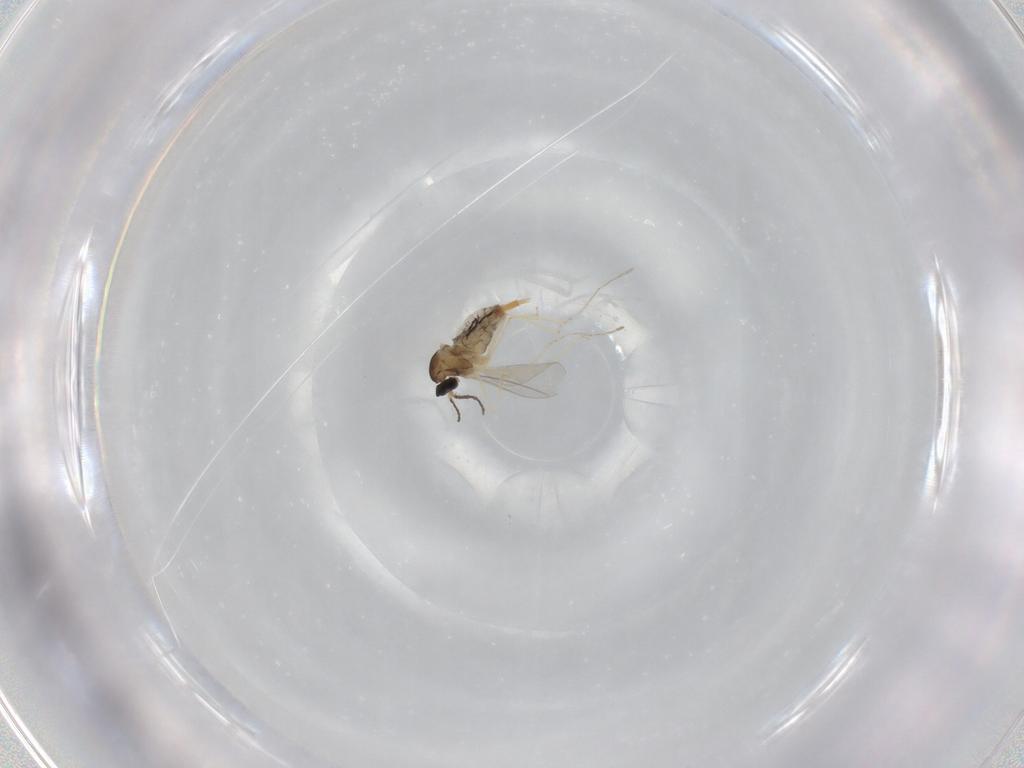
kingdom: Animalia
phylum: Arthropoda
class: Insecta
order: Diptera
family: Cecidomyiidae
